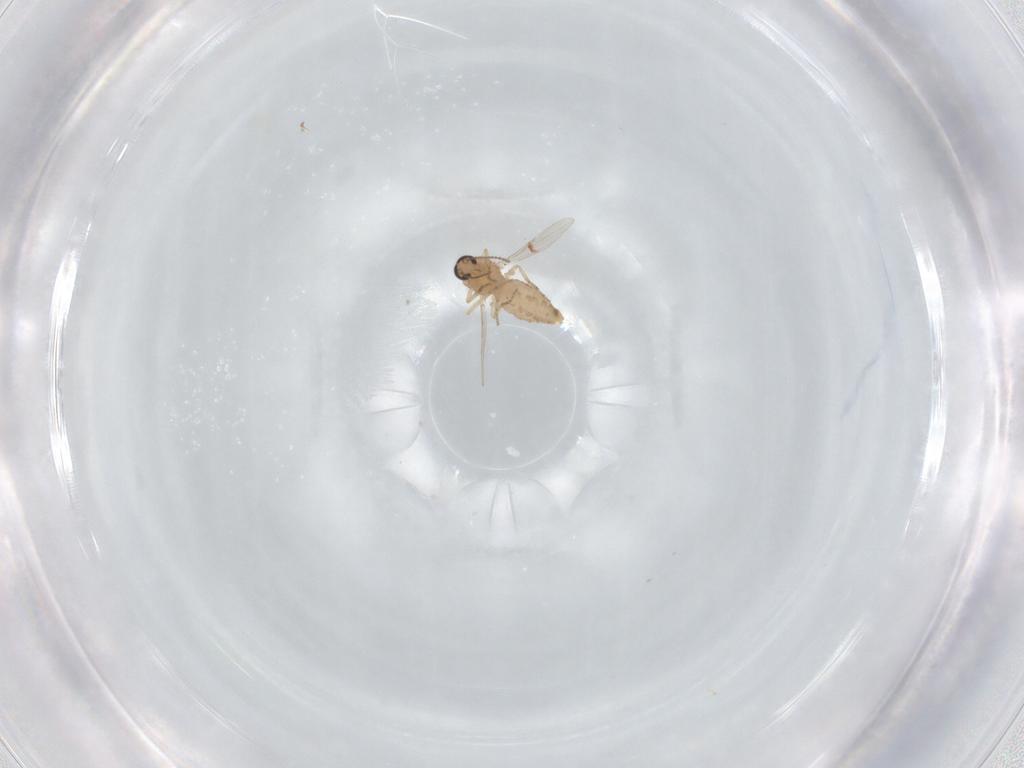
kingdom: Animalia
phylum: Arthropoda
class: Insecta
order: Diptera
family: Ceratopogonidae
